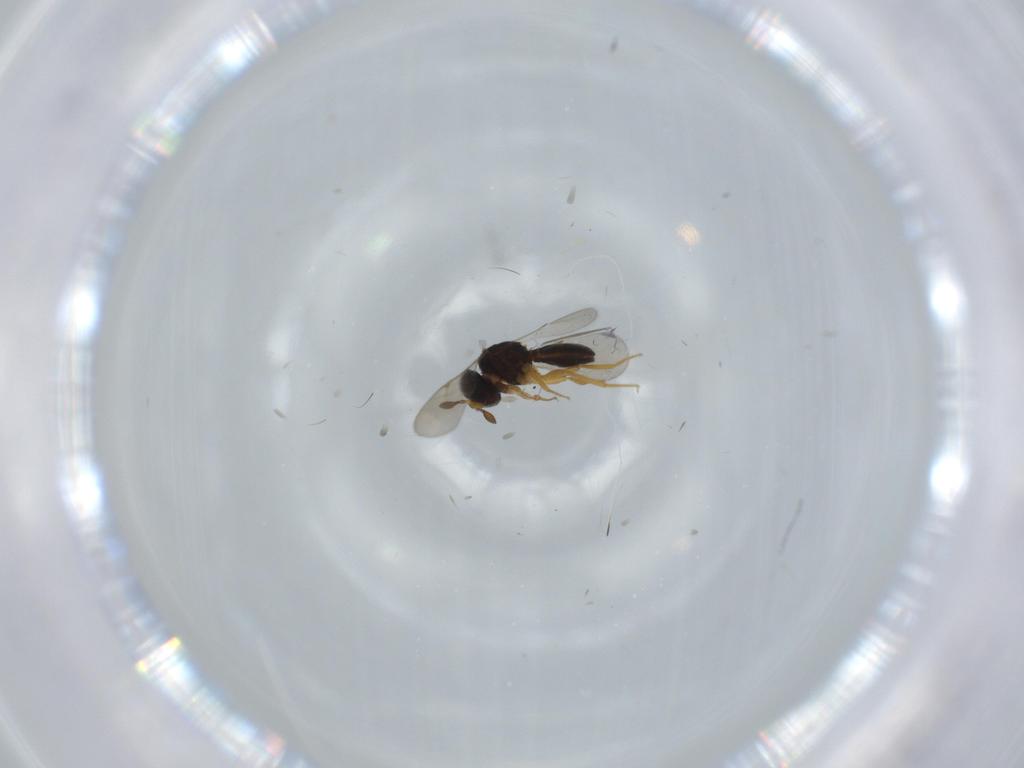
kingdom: Animalia
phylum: Arthropoda
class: Insecta
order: Hymenoptera
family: Scelionidae
